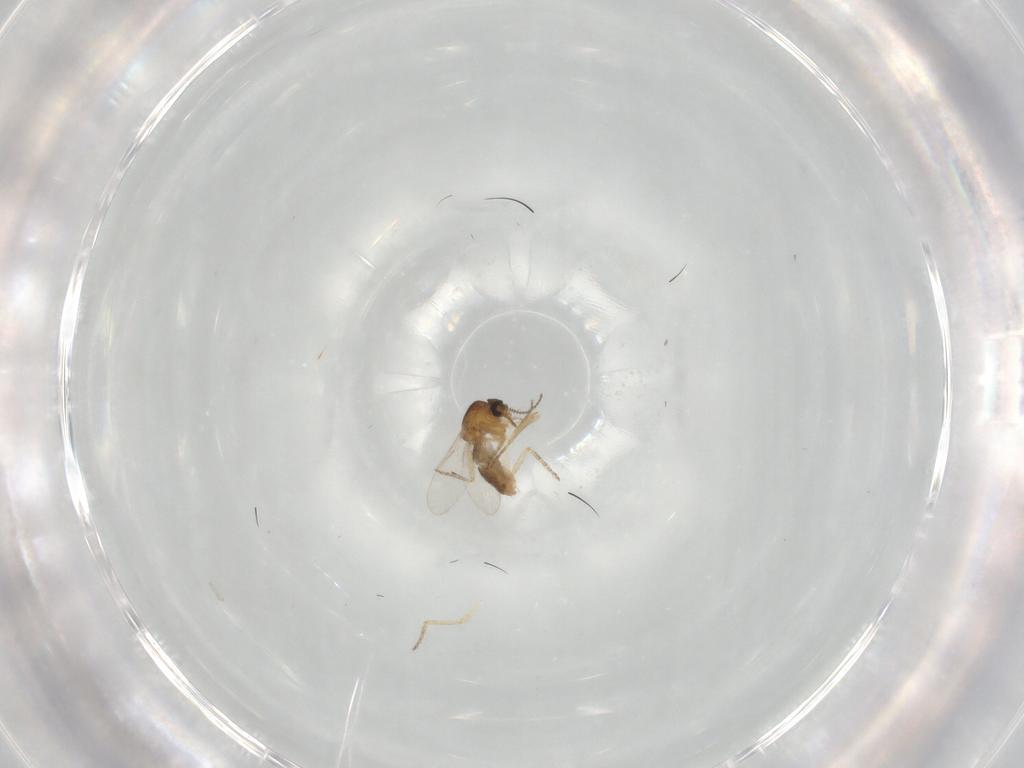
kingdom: Animalia
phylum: Arthropoda
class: Insecta
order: Diptera
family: Ceratopogonidae
